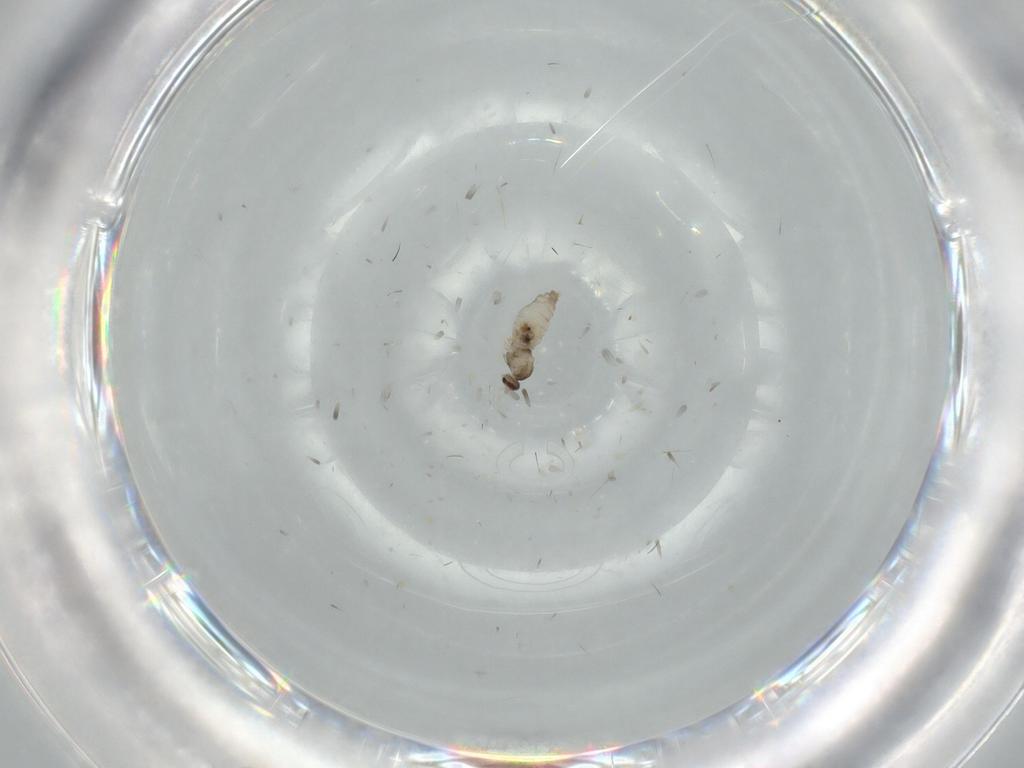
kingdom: Animalia
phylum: Arthropoda
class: Insecta
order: Diptera
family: Cecidomyiidae
